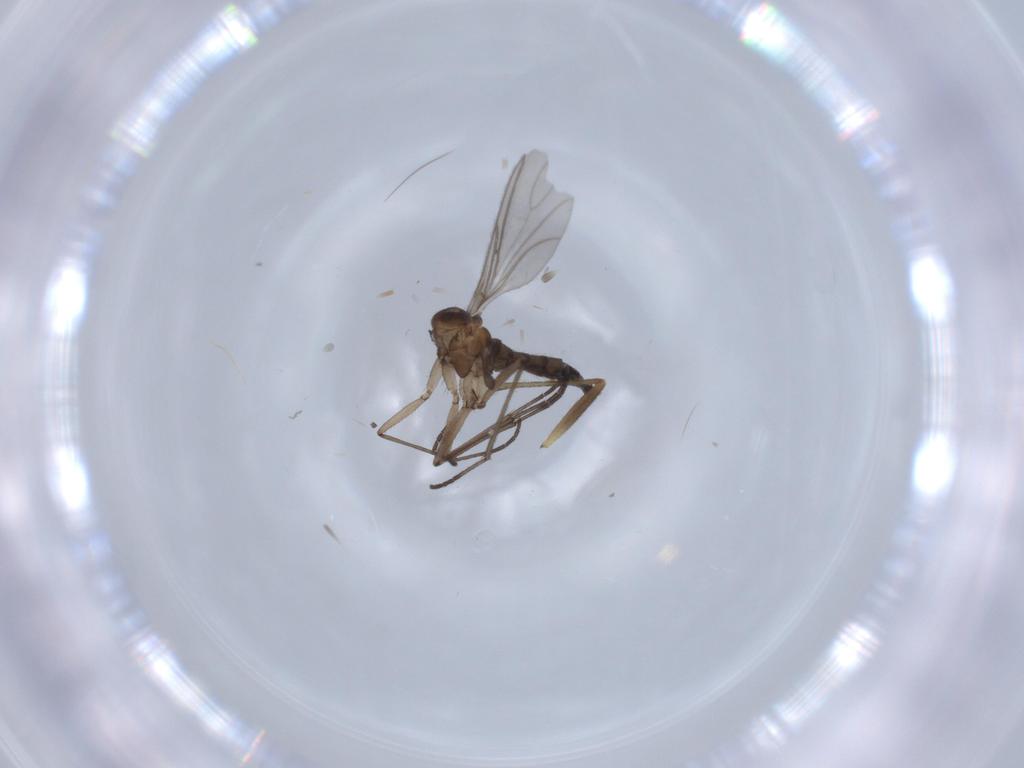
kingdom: Animalia
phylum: Arthropoda
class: Insecta
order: Diptera
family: Sciaridae
